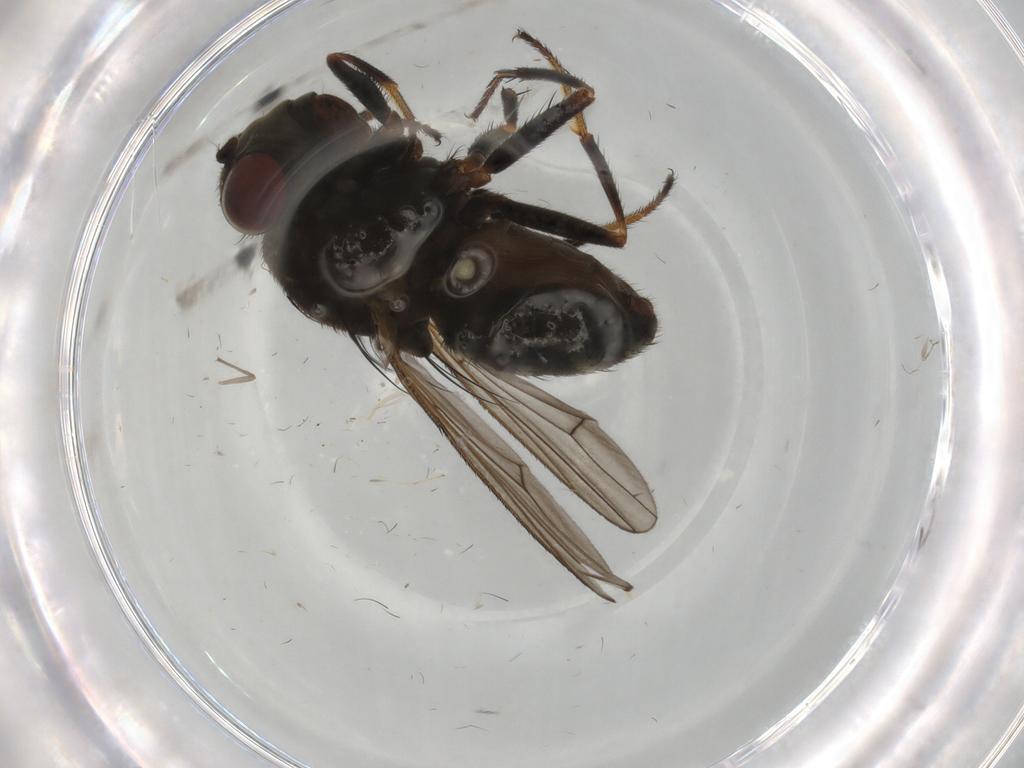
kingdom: Animalia
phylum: Arthropoda
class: Insecta
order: Diptera
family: Ephydridae
